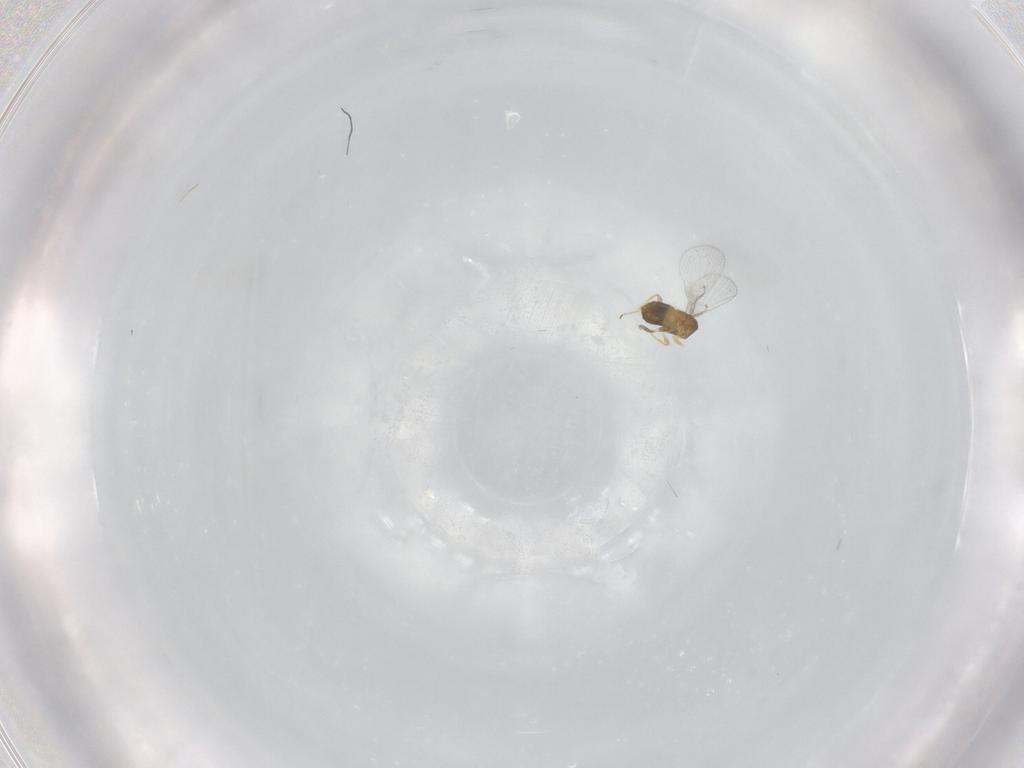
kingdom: Animalia
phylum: Arthropoda
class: Insecta
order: Hymenoptera
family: Trichogrammatidae
